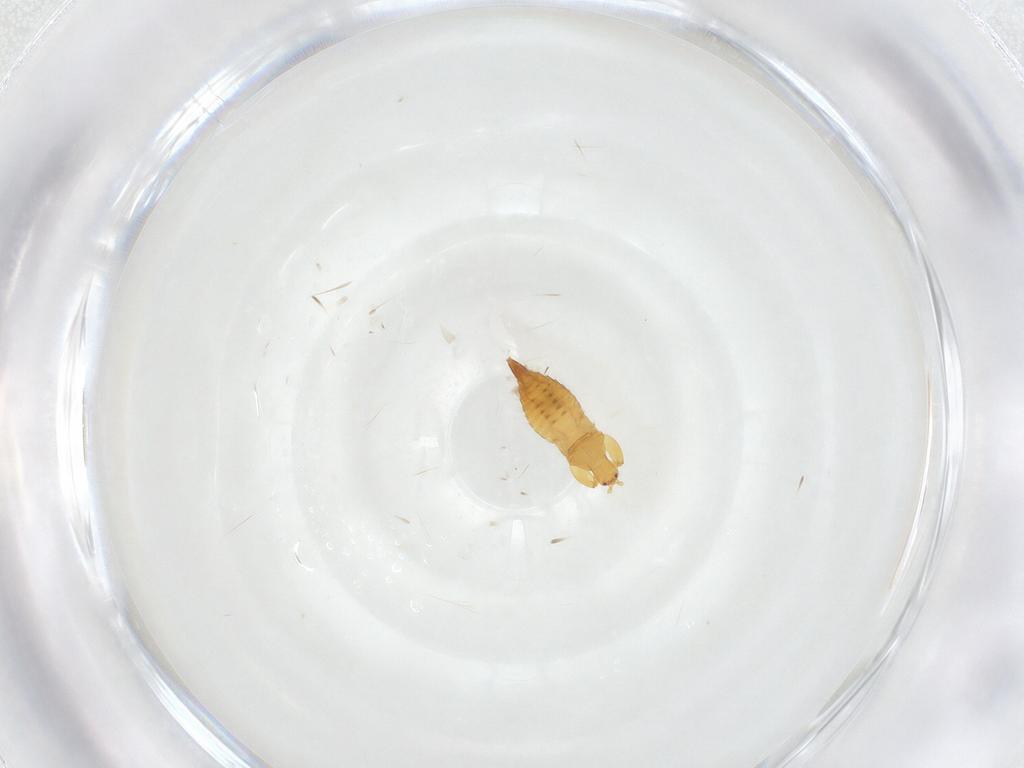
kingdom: Animalia
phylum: Arthropoda
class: Insecta
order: Thysanoptera
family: Phlaeothripidae
